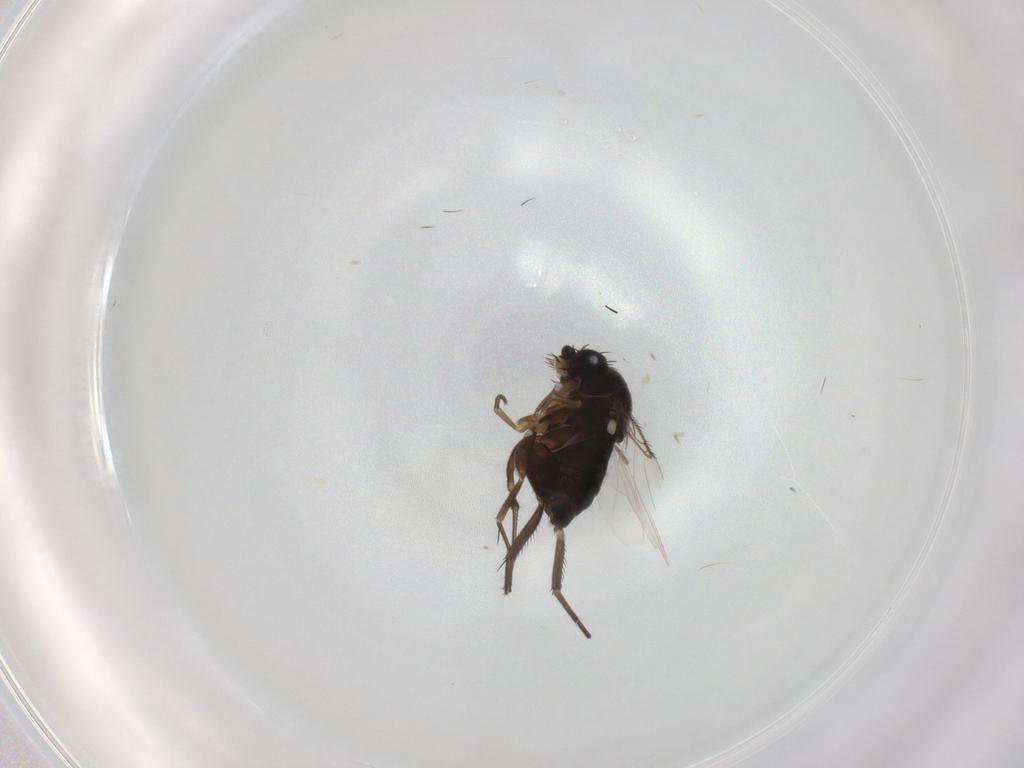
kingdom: Animalia
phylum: Arthropoda
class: Insecta
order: Diptera
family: Phoridae
